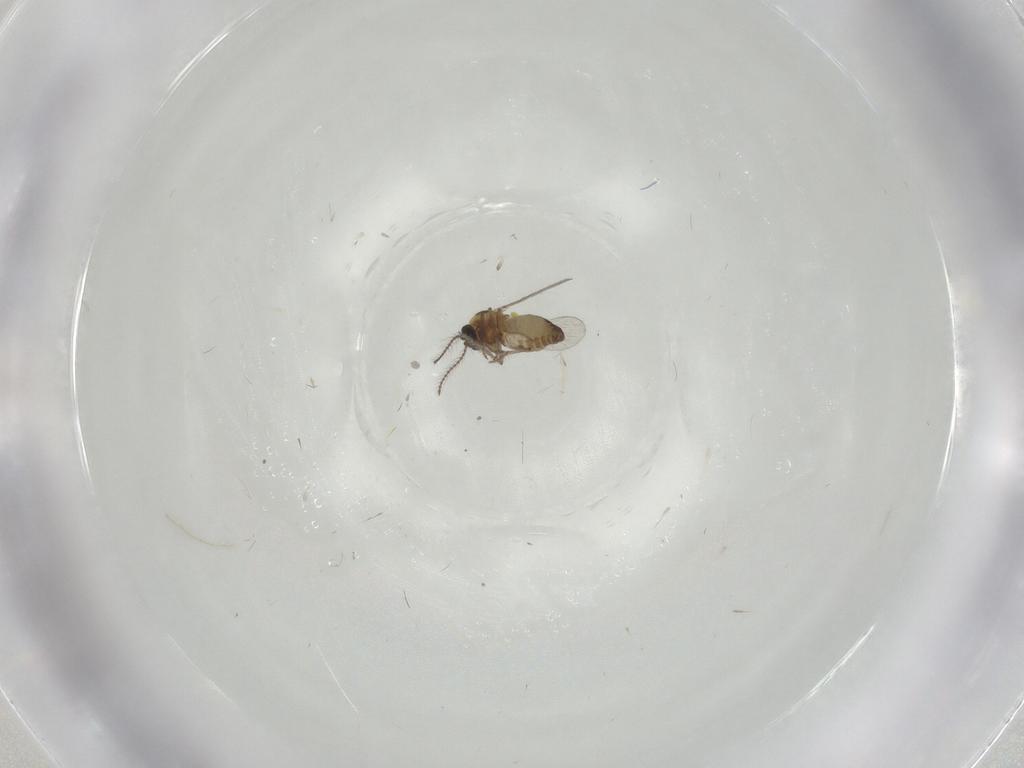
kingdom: Animalia
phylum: Arthropoda
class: Insecta
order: Diptera
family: Ceratopogonidae
